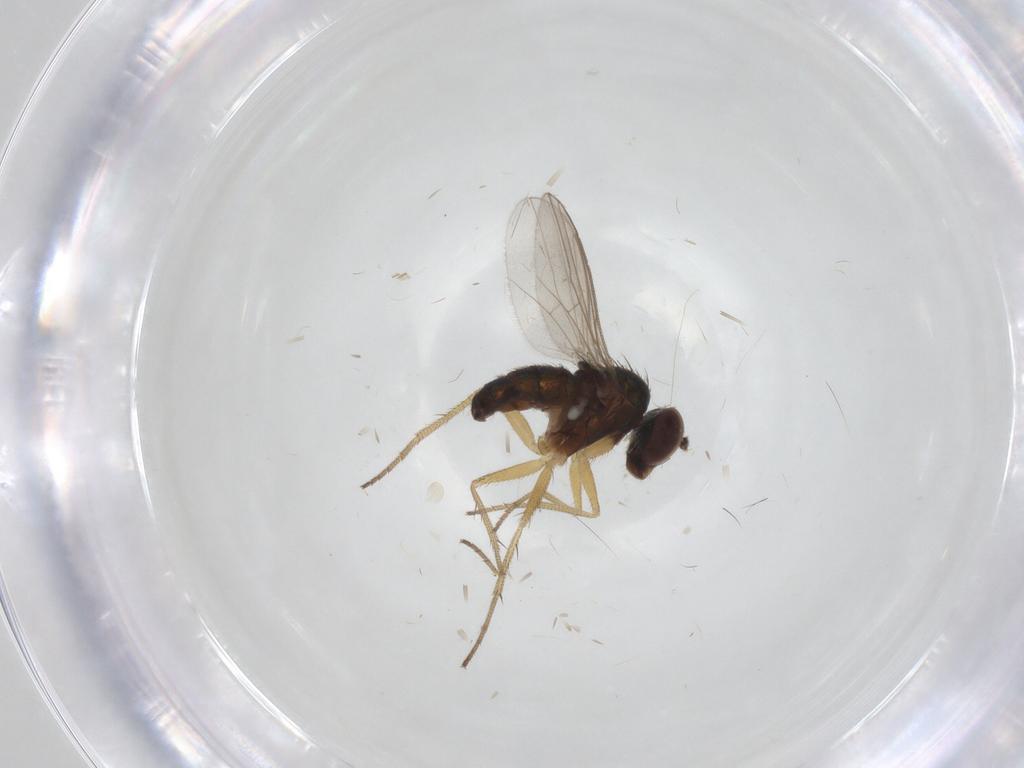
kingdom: Animalia
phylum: Arthropoda
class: Insecta
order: Diptera
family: Dolichopodidae
